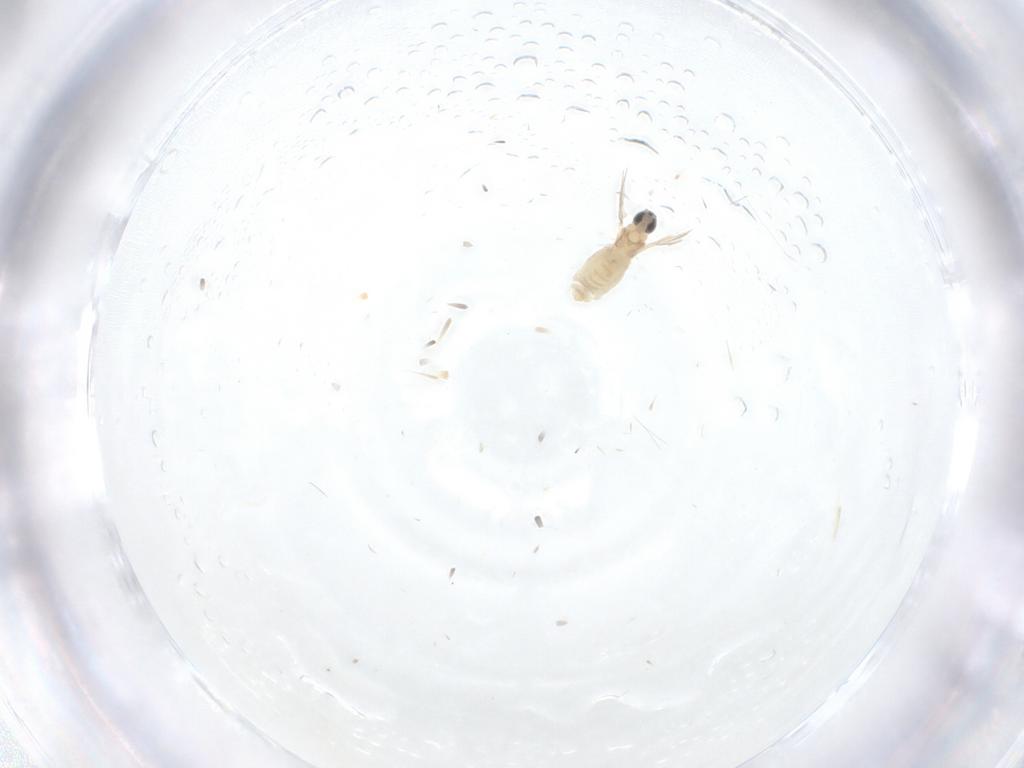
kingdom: Animalia
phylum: Arthropoda
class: Insecta
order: Diptera
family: Cecidomyiidae
